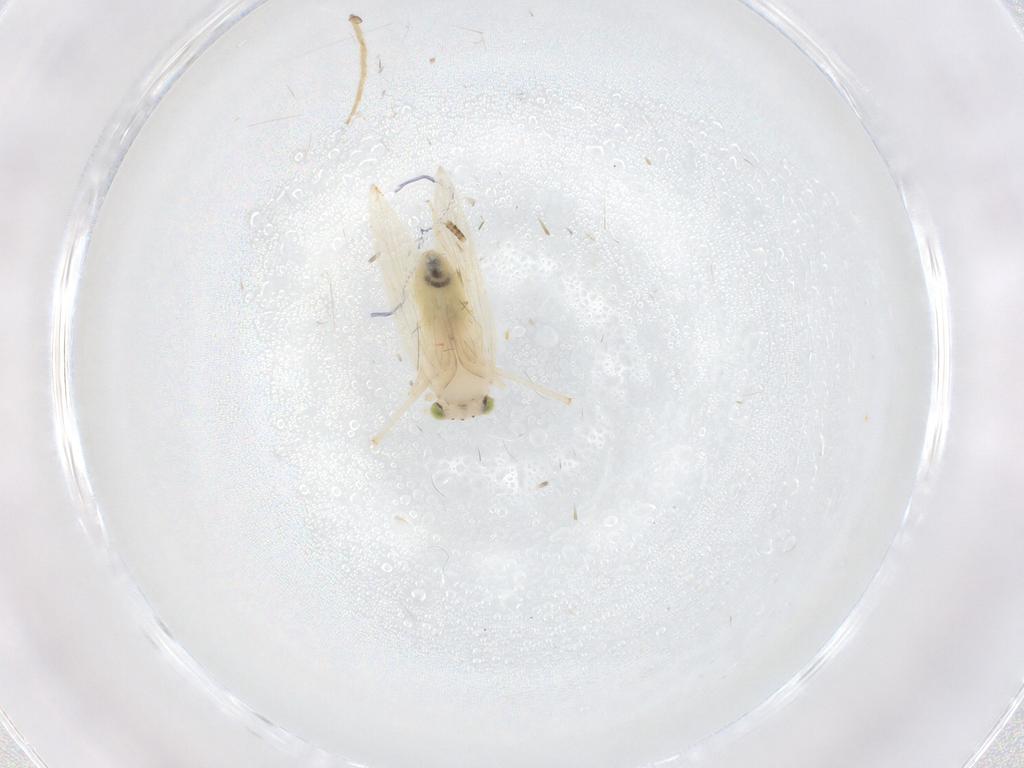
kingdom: Animalia
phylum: Arthropoda
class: Insecta
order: Psocodea
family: Lepidopsocidae
